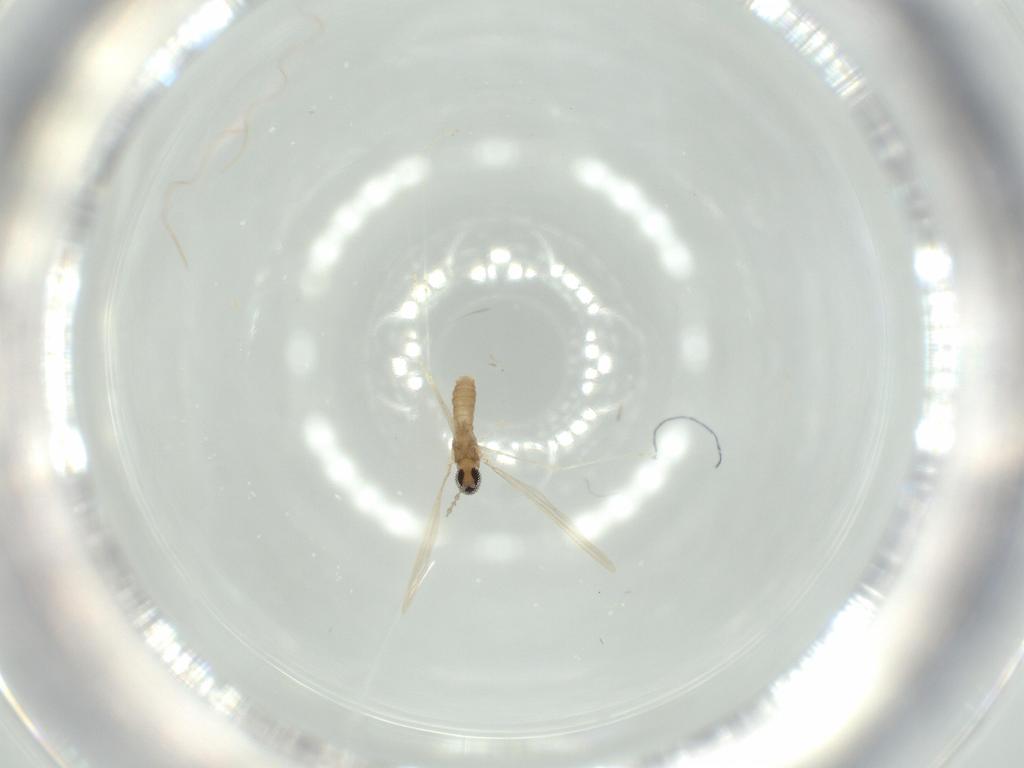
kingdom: Animalia
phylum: Arthropoda
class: Insecta
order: Diptera
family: Cecidomyiidae
